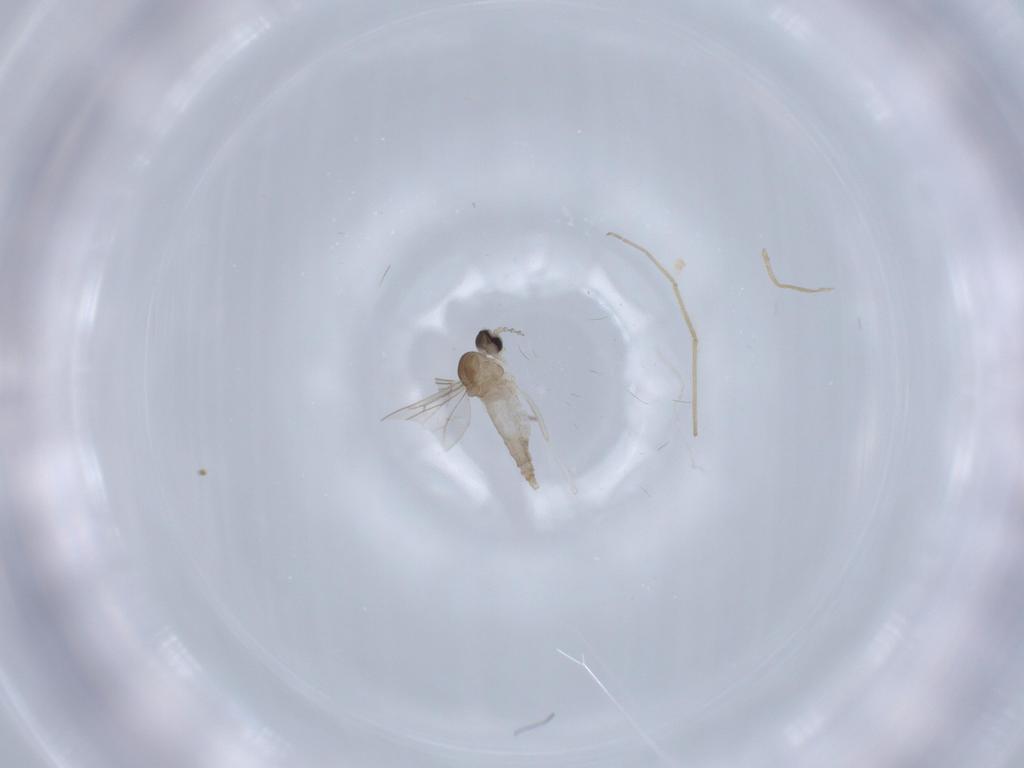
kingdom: Animalia
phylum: Arthropoda
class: Insecta
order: Diptera
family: Cecidomyiidae
